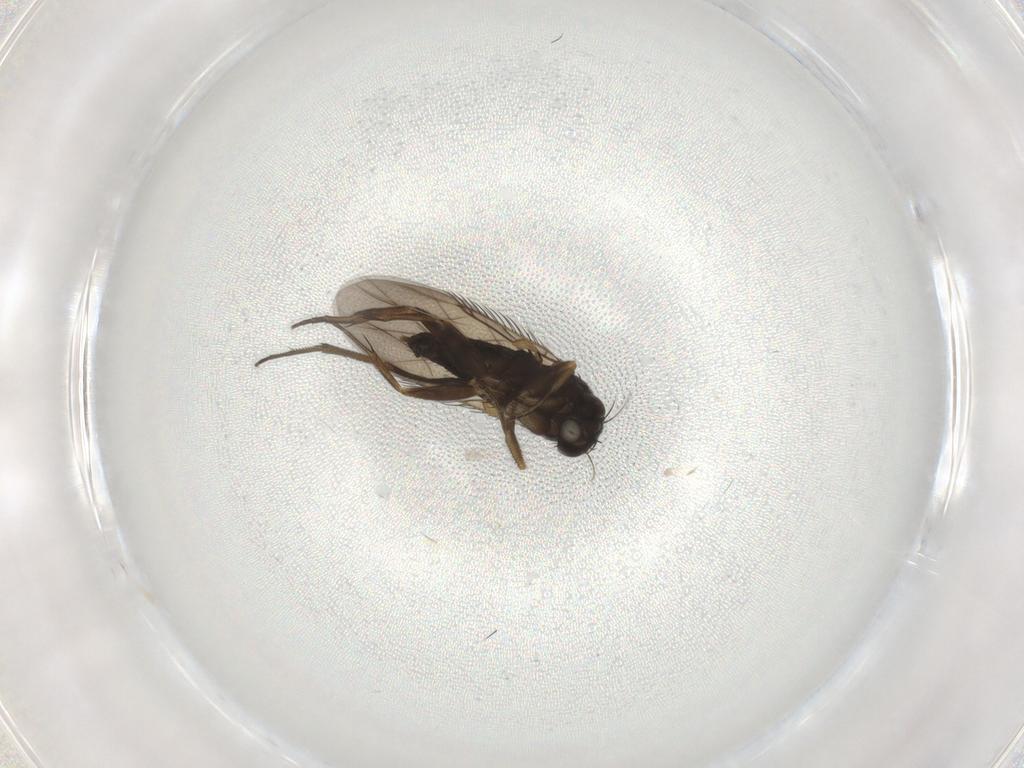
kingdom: Animalia
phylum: Arthropoda
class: Insecta
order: Diptera
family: Phoridae
